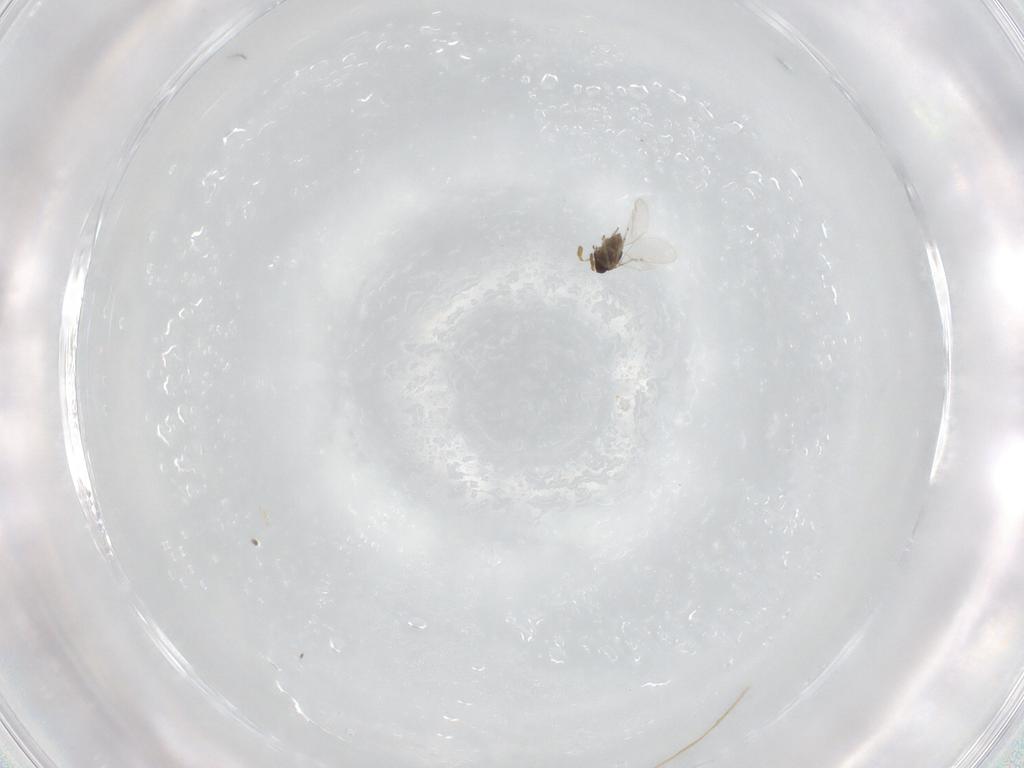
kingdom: Animalia
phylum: Arthropoda
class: Insecta
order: Hymenoptera
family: Encyrtidae
